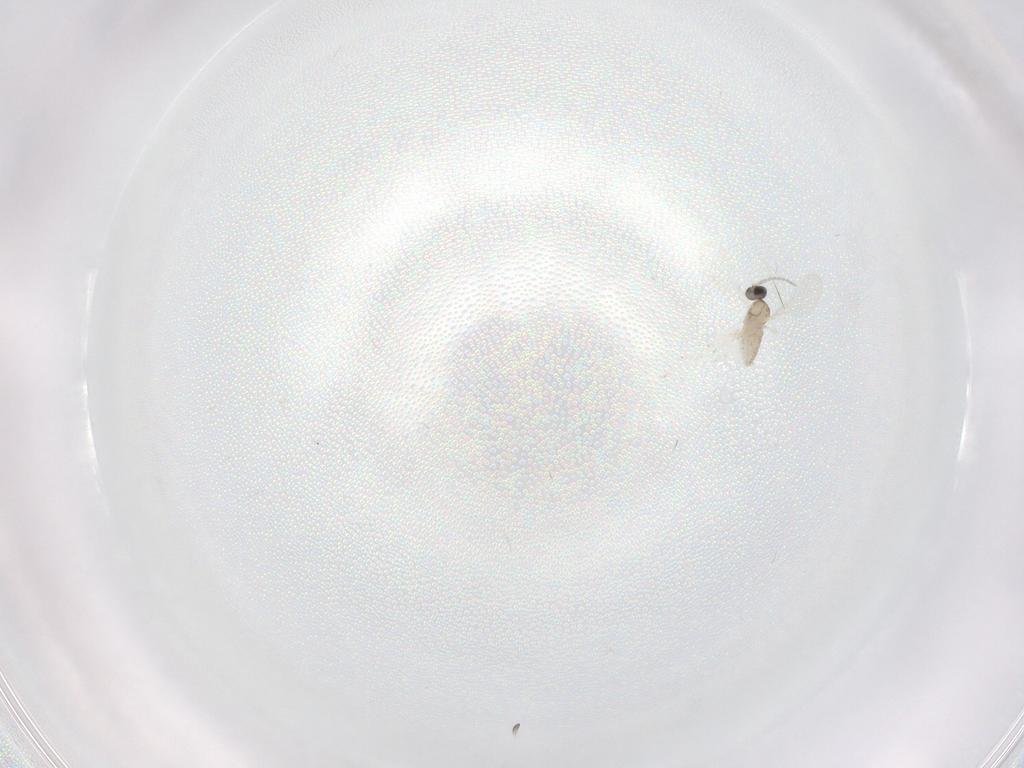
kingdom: Animalia
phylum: Arthropoda
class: Insecta
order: Diptera
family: Cecidomyiidae
